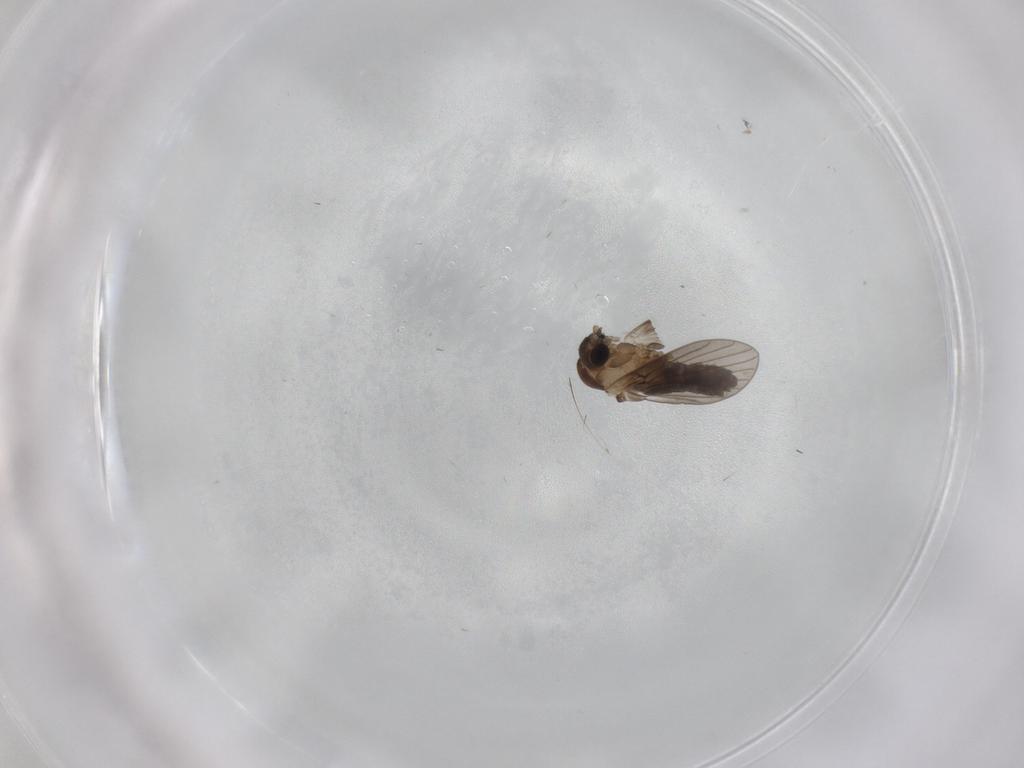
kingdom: Animalia
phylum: Arthropoda
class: Insecta
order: Diptera
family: Psychodidae
